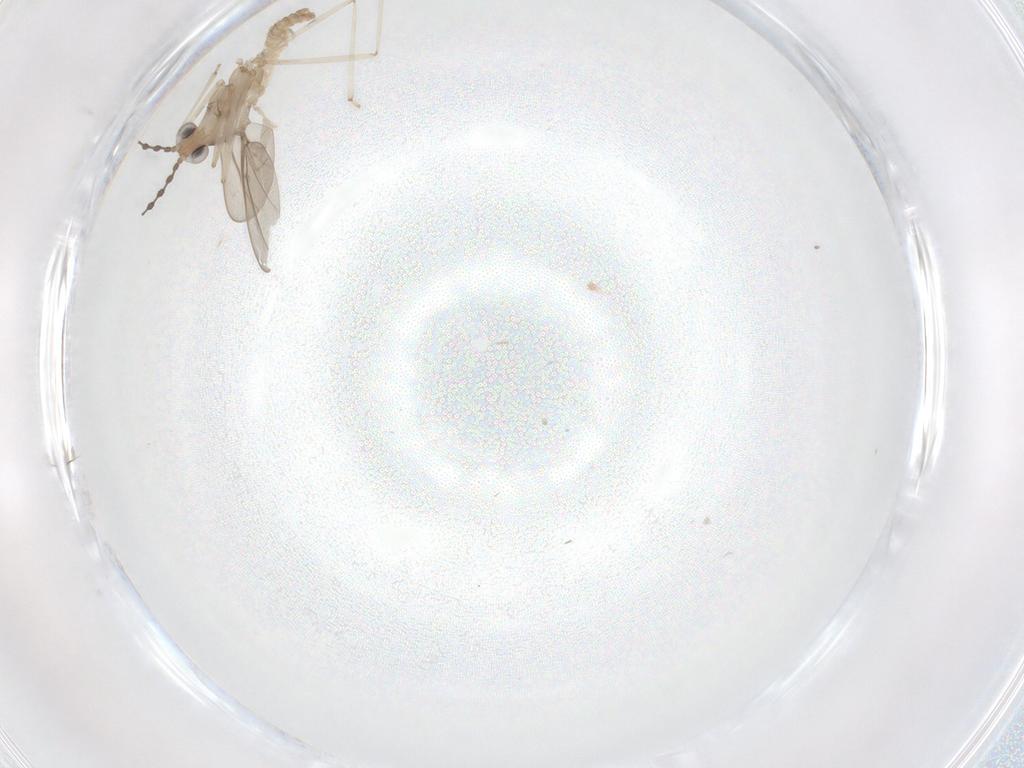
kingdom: Animalia
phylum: Arthropoda
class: Insecta
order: Diptera
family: Cecidomyiidae
